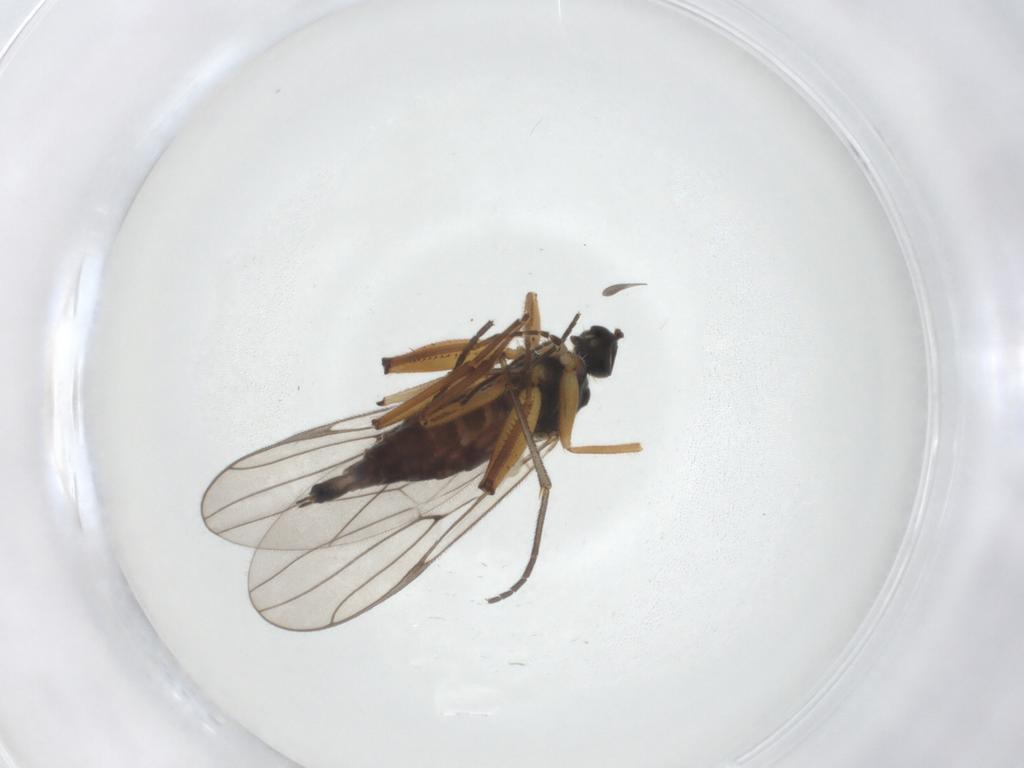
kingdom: Animalia
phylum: Arthropoda
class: Insecta
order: Diptera
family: Hybotidae
